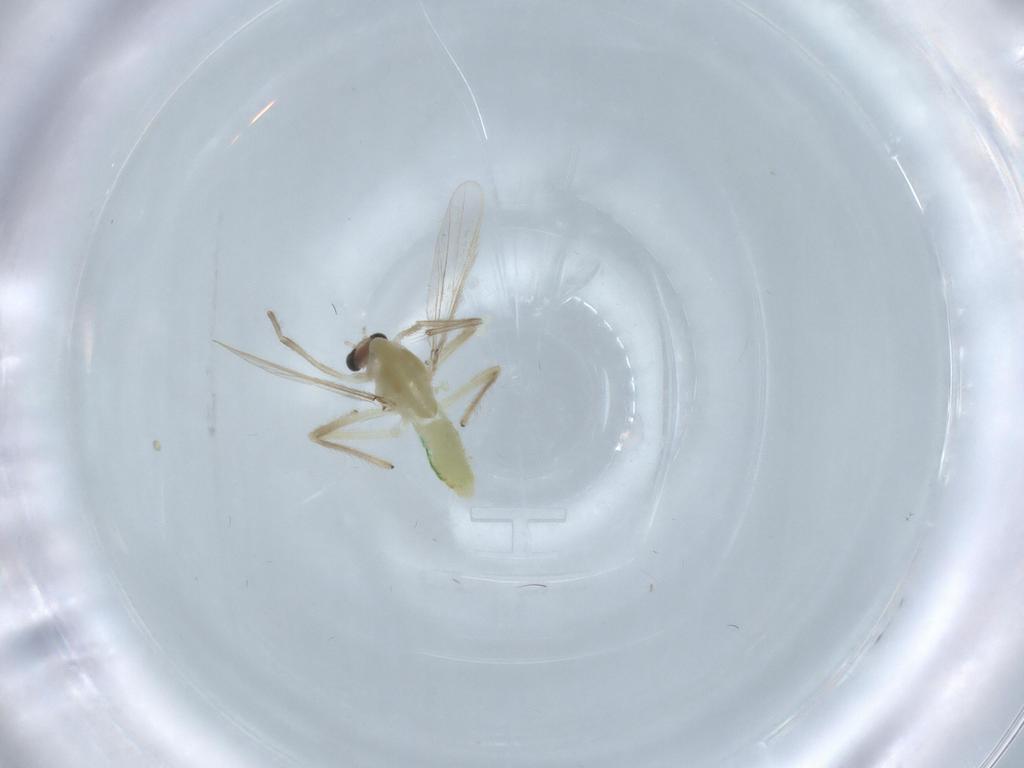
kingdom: Animalia
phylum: Arthropoda
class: Insecta
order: Diptera
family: Chironomidae
